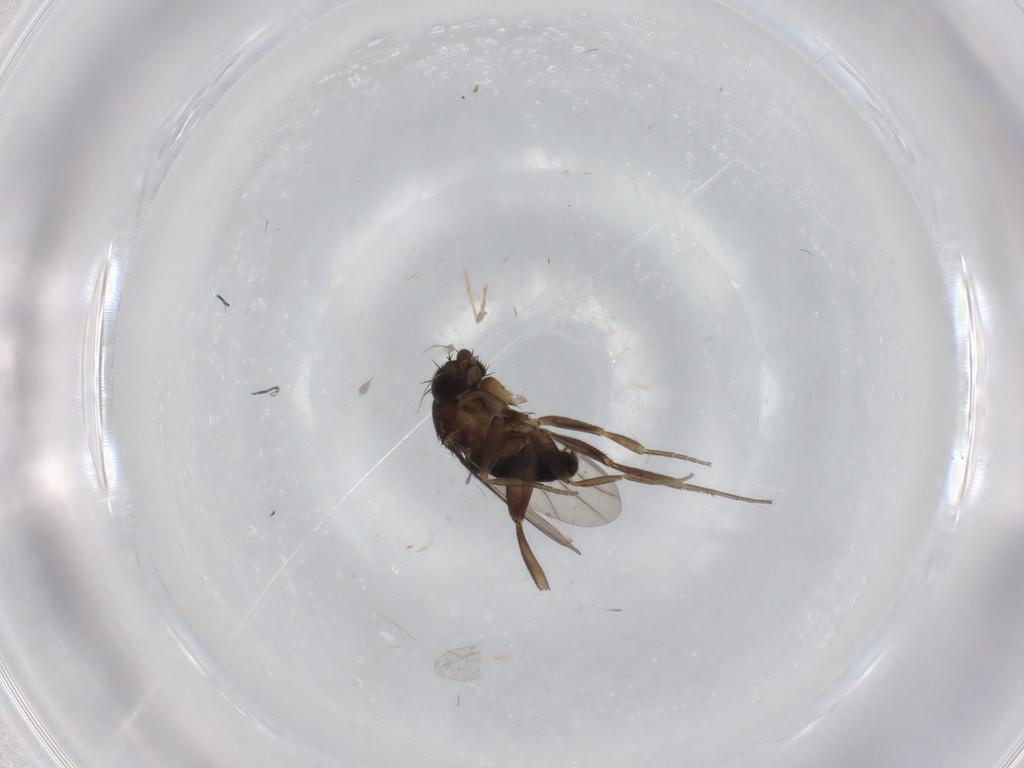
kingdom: Animalia
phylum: Arthropoda
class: Insecta
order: Diptera
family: Phoridae
